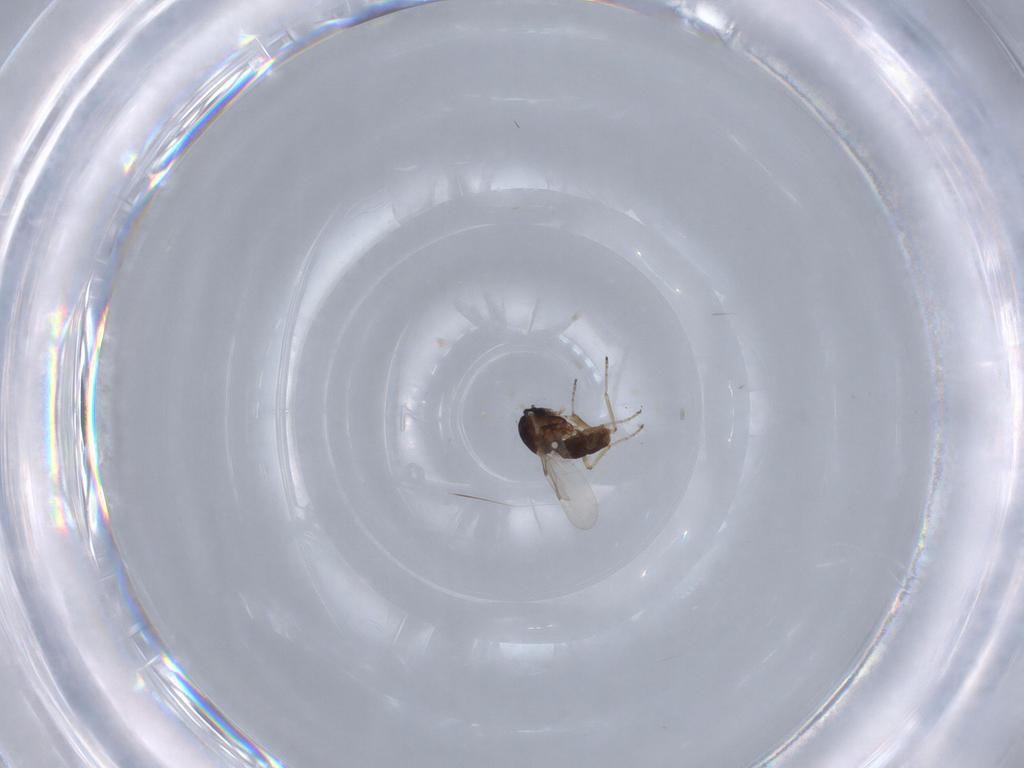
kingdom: Animalia
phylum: Arthropoda
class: Insecta
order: Diptera
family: Ceratopogonidae
